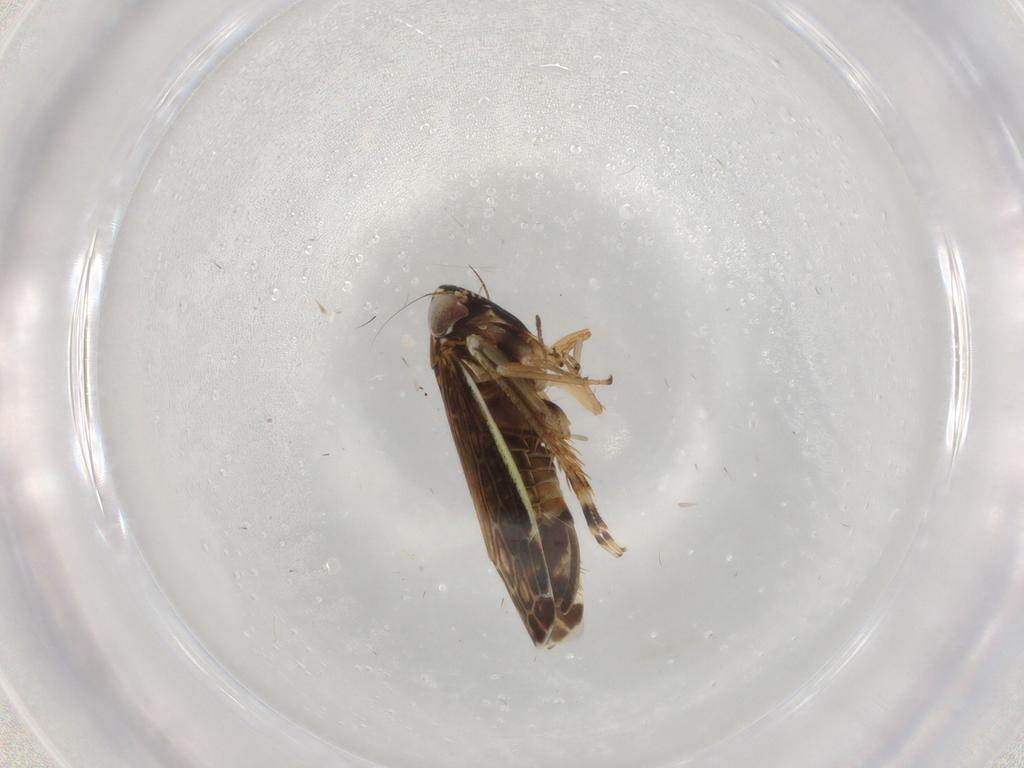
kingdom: Animalia
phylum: Arthropoda
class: Insecta
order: Hemiptera
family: Cicadellidae
